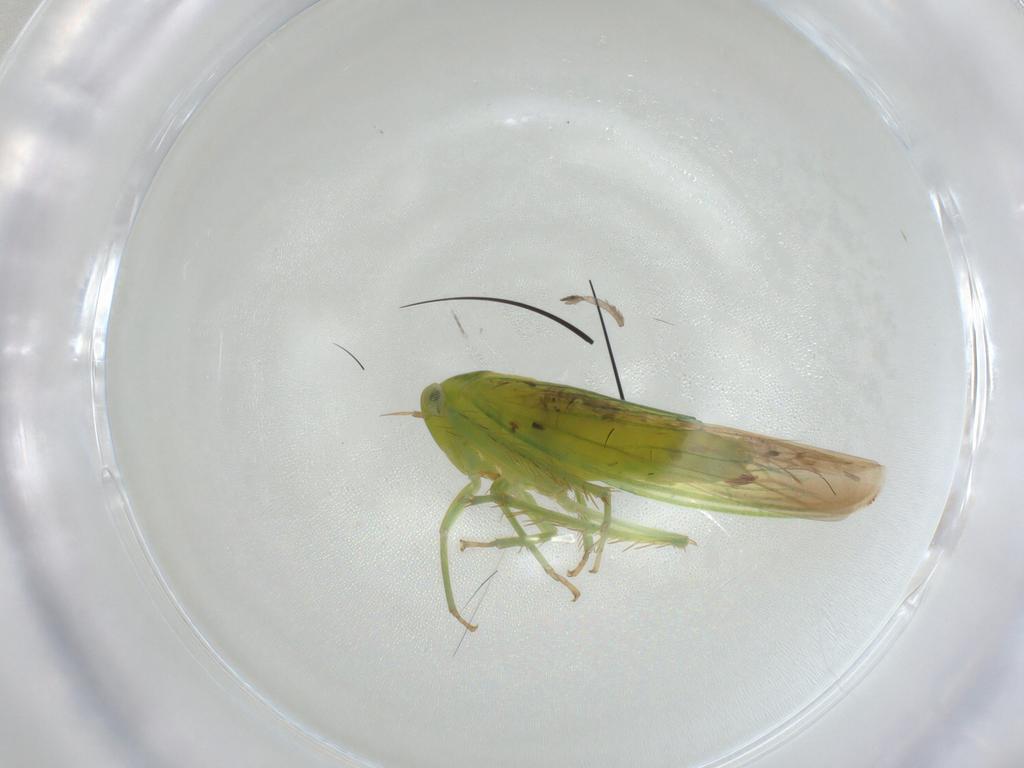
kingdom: Animalia
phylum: Arthropoda
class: Insecta
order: Hemiptera
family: Cicadellidae
